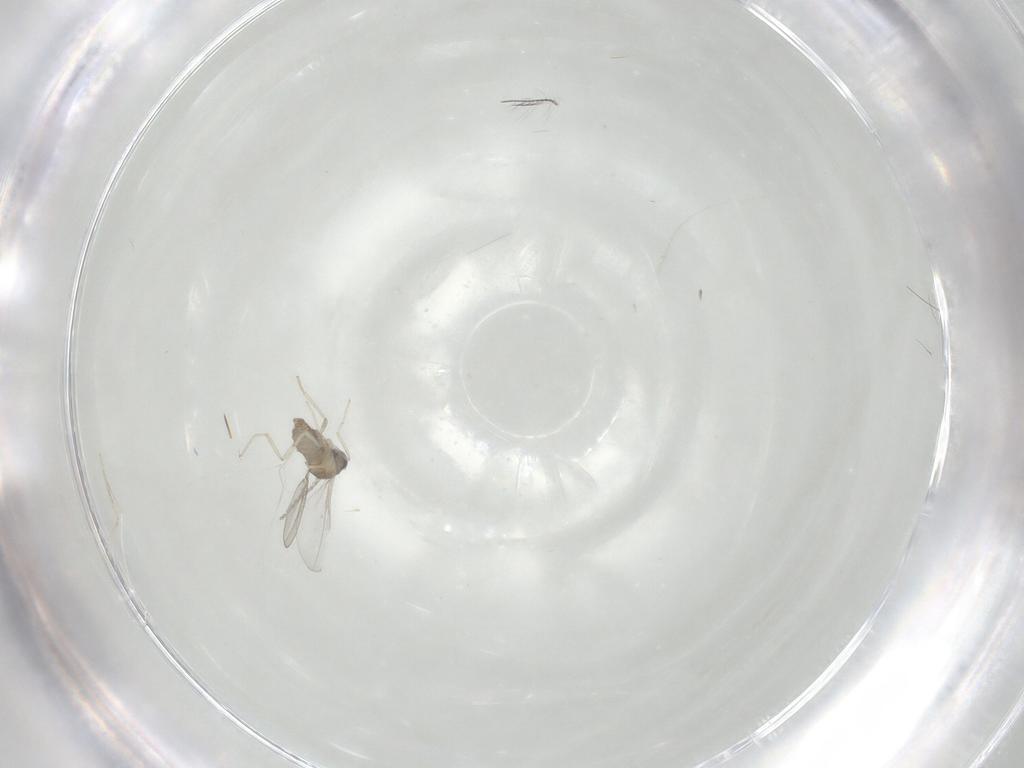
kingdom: Animalia
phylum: Arthropoda
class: Insecta
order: Diptera
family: Cecidomyiidae
